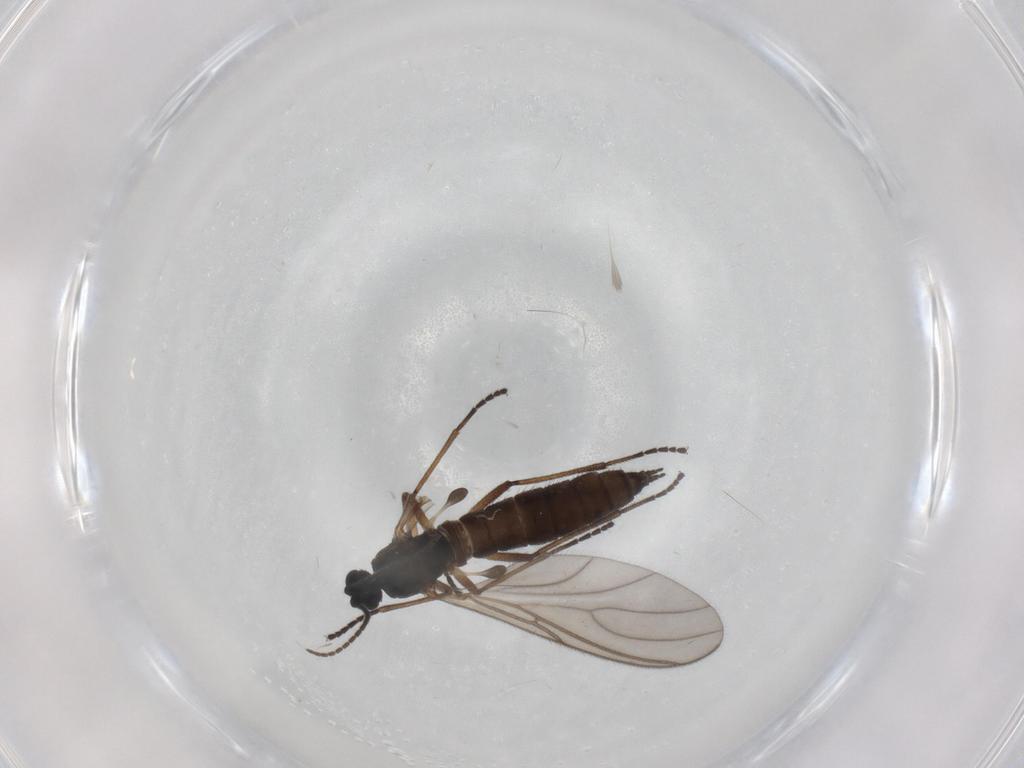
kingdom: Animalia
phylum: Arthropoda
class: Insecta
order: Diptera
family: Sciaridae
